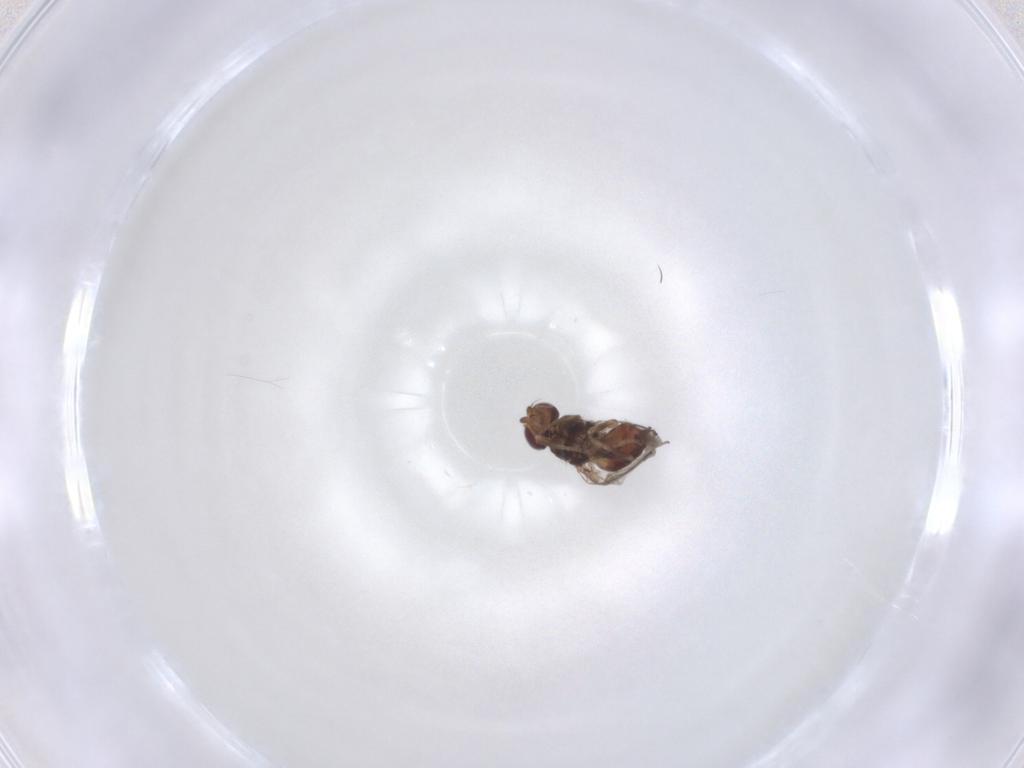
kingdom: Animalia
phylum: Arthropoda
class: Insecta
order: Diptera
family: Chloropidae
